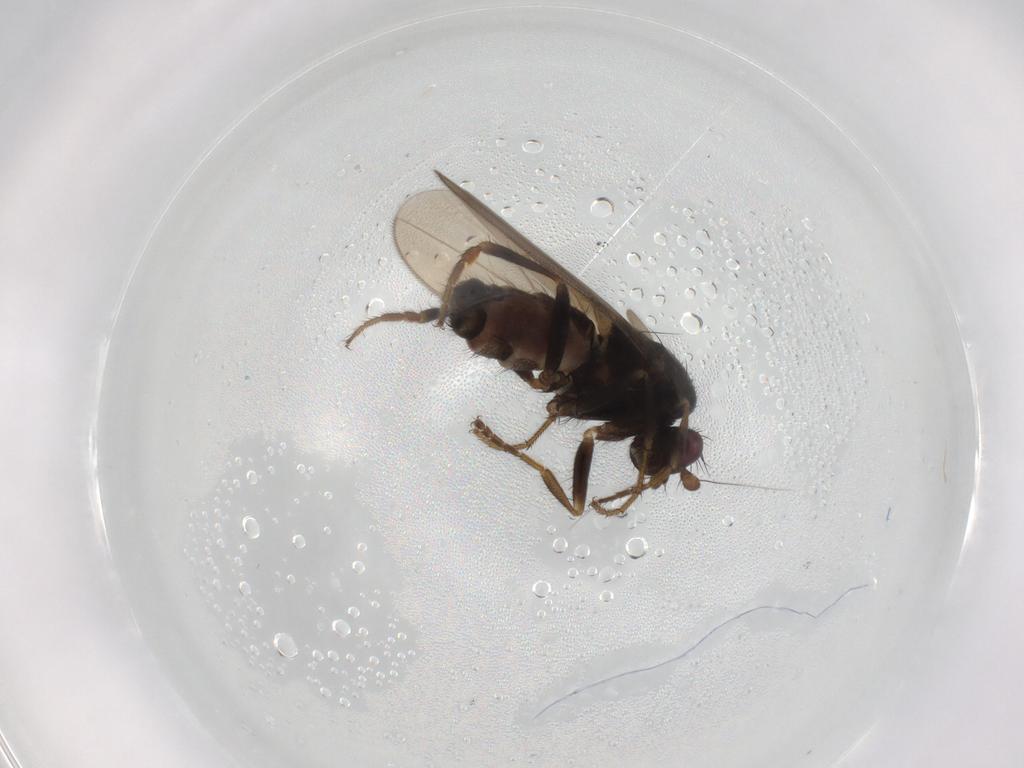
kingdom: Animalia
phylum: Arthropoda
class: Insecta
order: Diptera
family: Sphaeroceridae
